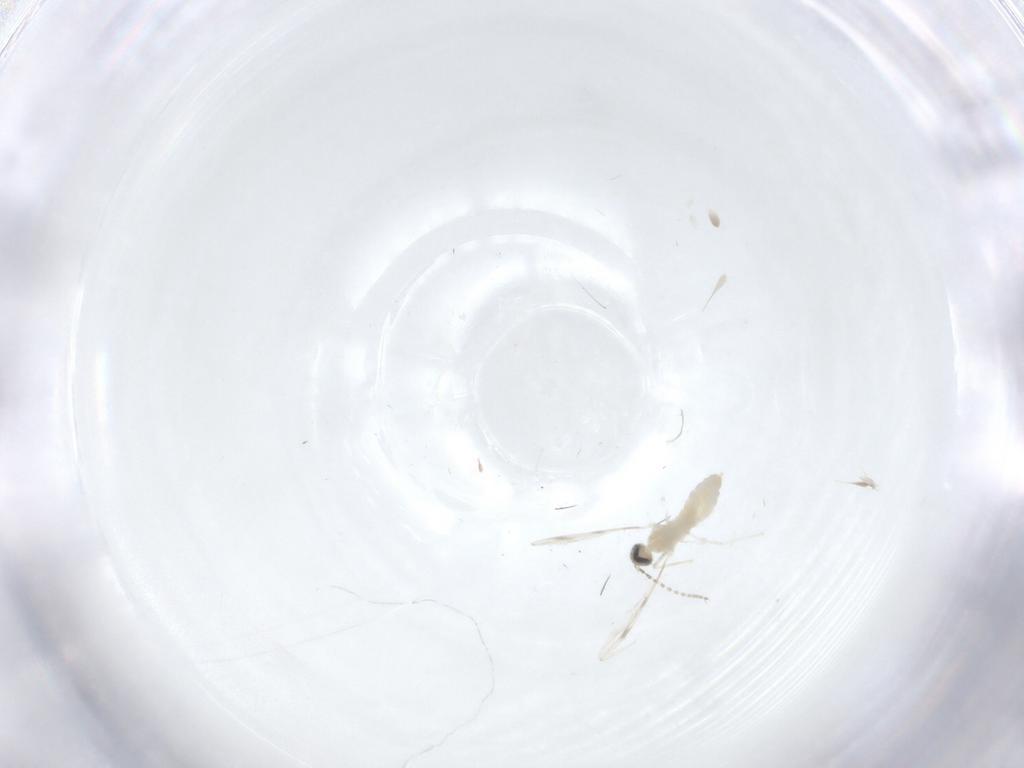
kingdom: Animalia
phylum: Arthropoda
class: Insecta
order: Diptera
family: Cecidomyiidae
